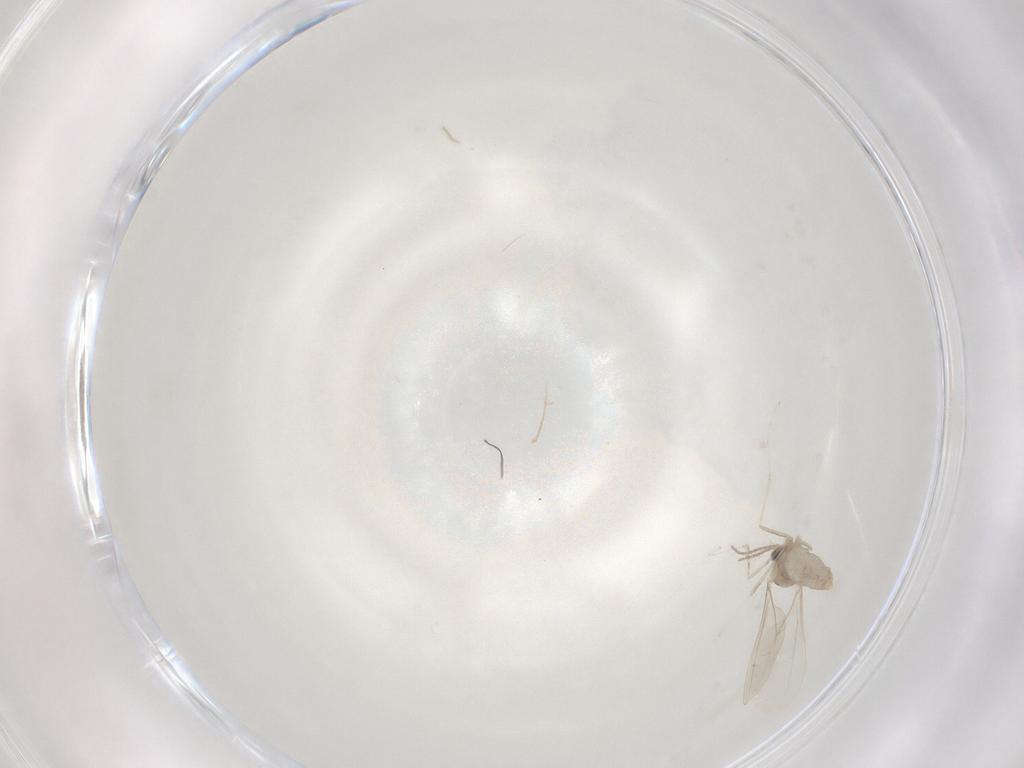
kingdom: Animalia
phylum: Arthropoda
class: Insecta
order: Diptera
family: Cecidomyiidae
